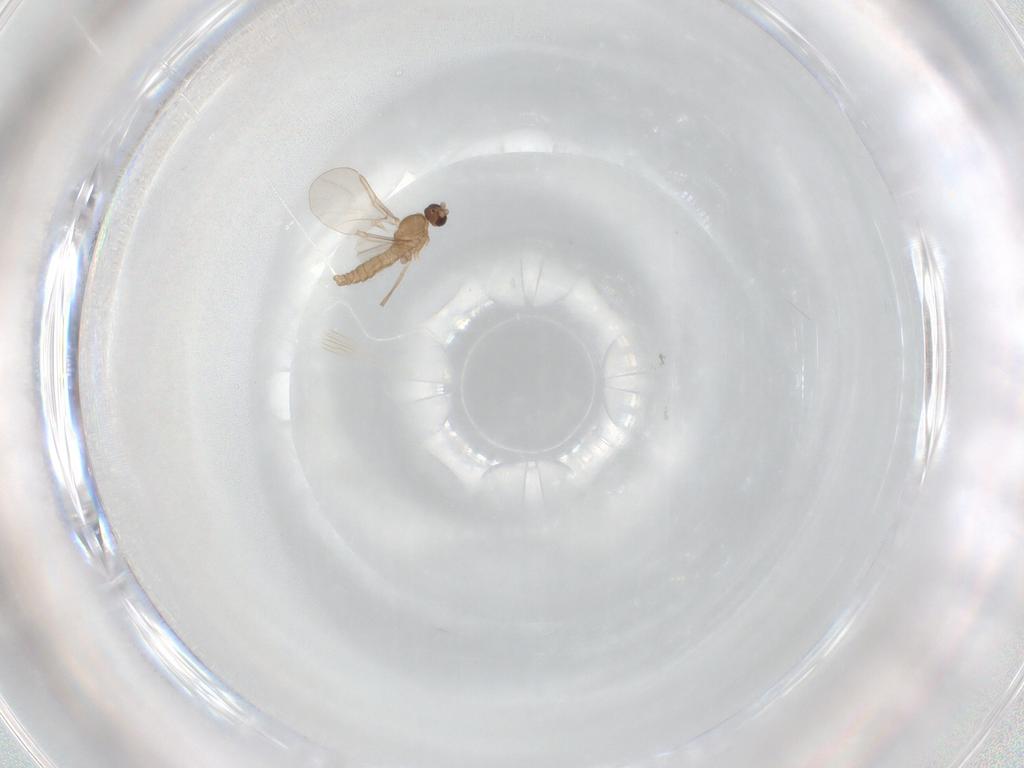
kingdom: Animalia
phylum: Arthropoda
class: Insecta
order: Diptera
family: Cecidomyiidae
